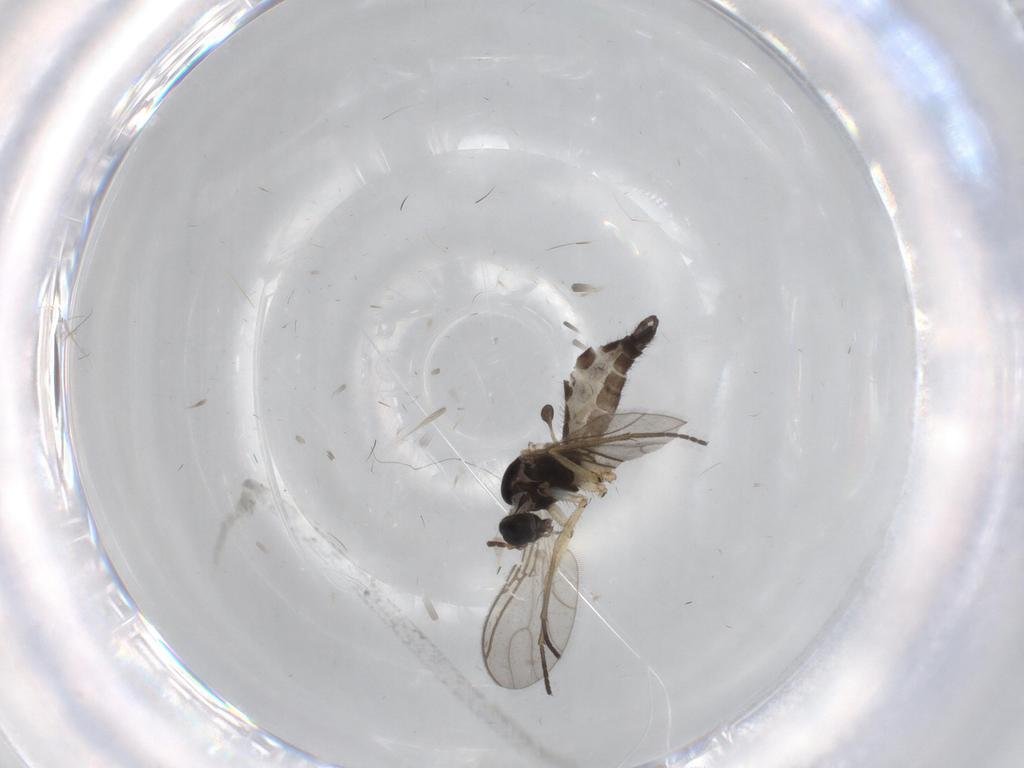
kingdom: Animalia
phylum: Arthropoda
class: Insecta
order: Diptera
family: Sciaridae
